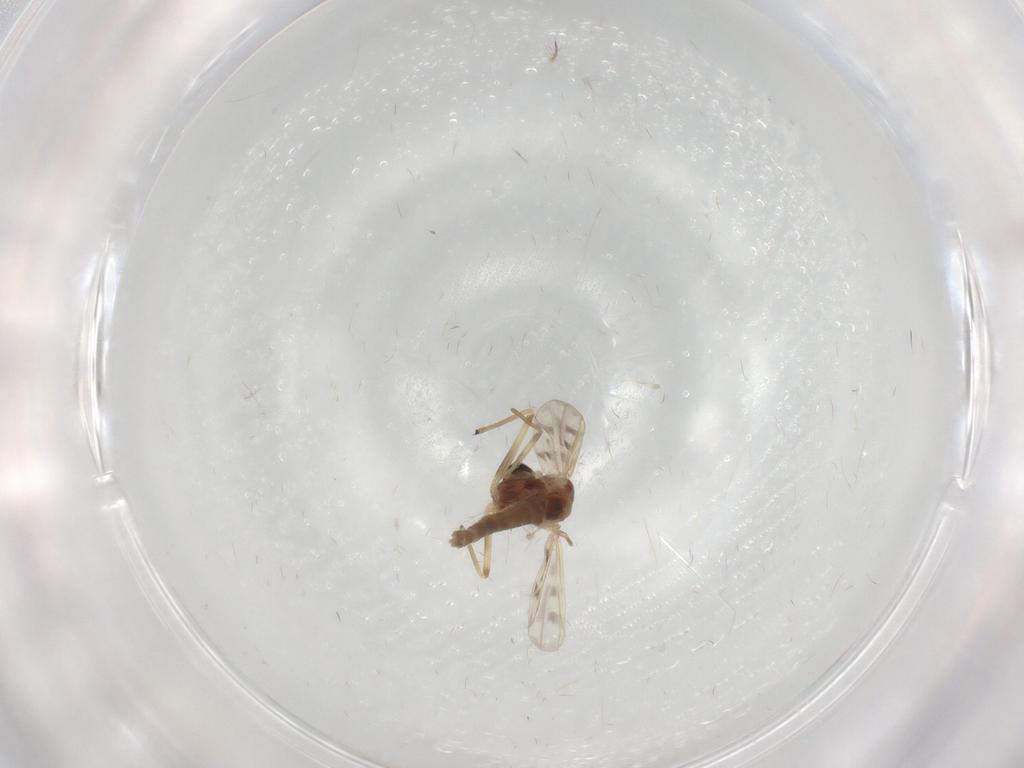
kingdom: Animalia
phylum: Arthropoda
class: Insecta
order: Diptera
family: Chironomidae
